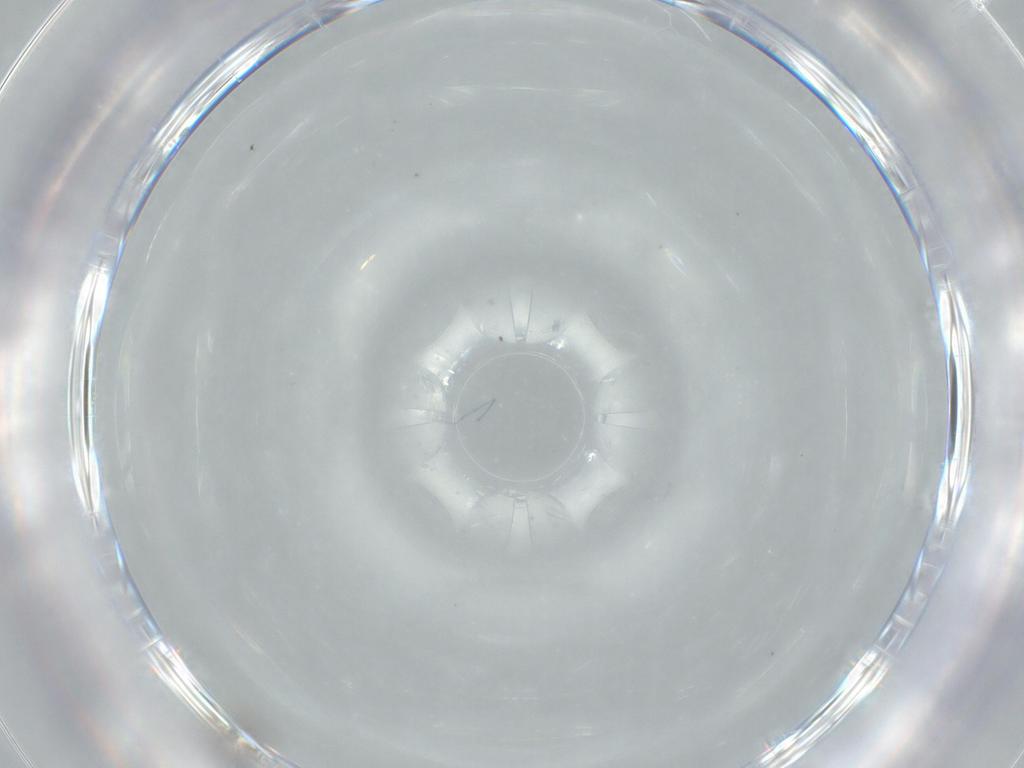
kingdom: Animalia
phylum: Arthropoda
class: Insecta
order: Hymenoptera
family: Scelionidae
